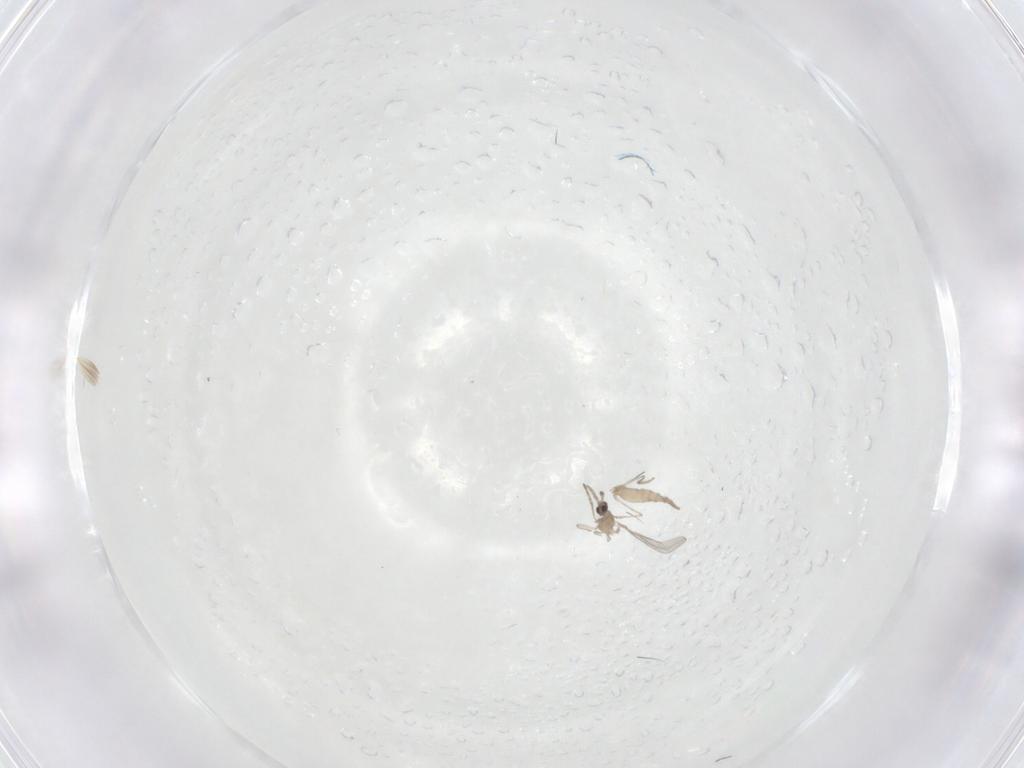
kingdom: Animalia
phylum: Arthropoda
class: Insecta
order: Diptera
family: Cecidomyiidae
